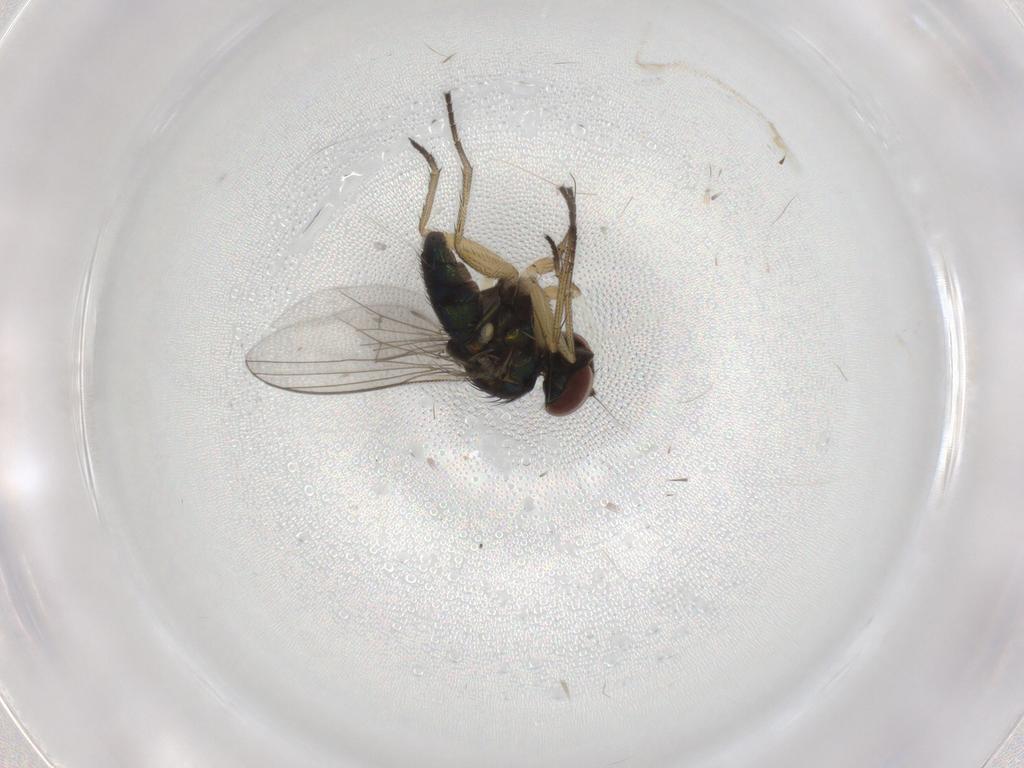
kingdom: Animalia
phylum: Arthropoda
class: Insecta
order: Diptera
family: Dolichopodidae
